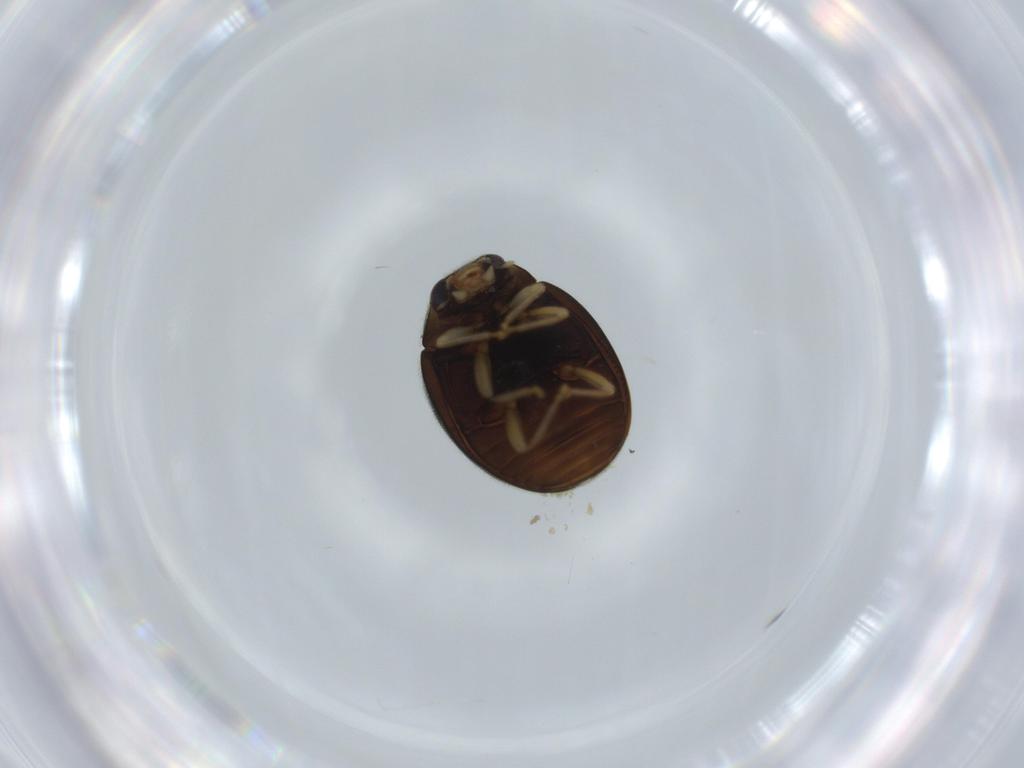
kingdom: Animalia
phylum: Arthropoda
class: Insecta
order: Coleoptera
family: Coccinellidae
